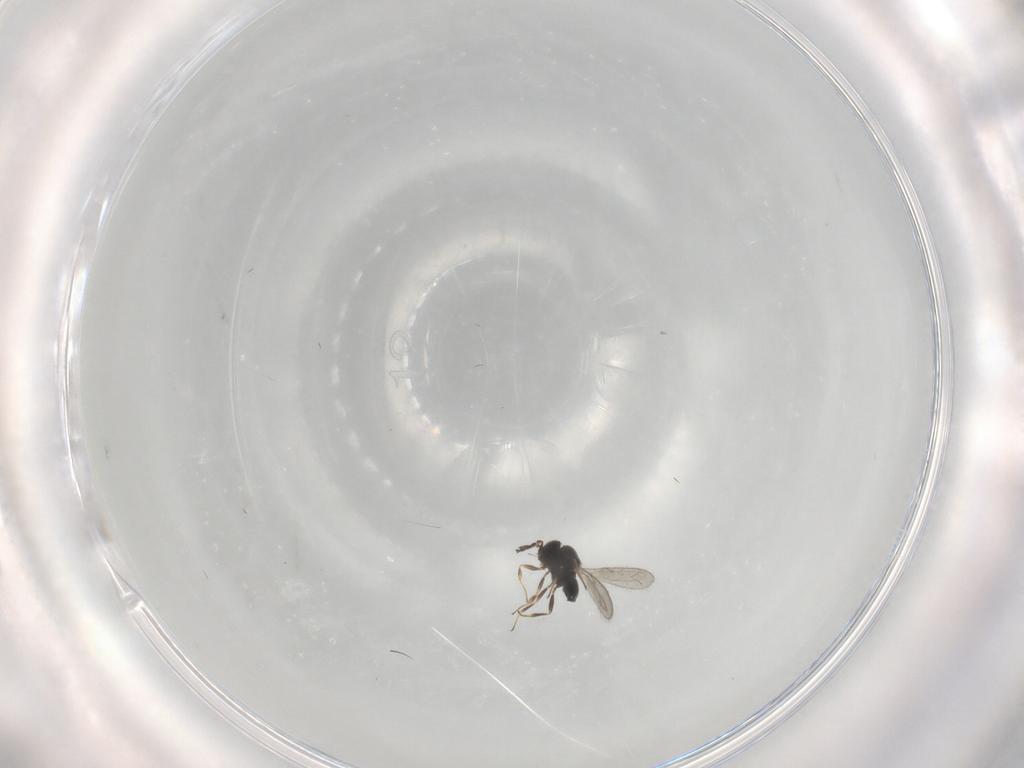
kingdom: Animalia
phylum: Arthropoda
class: Insecta
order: Hymenoptera
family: Scelionidae
